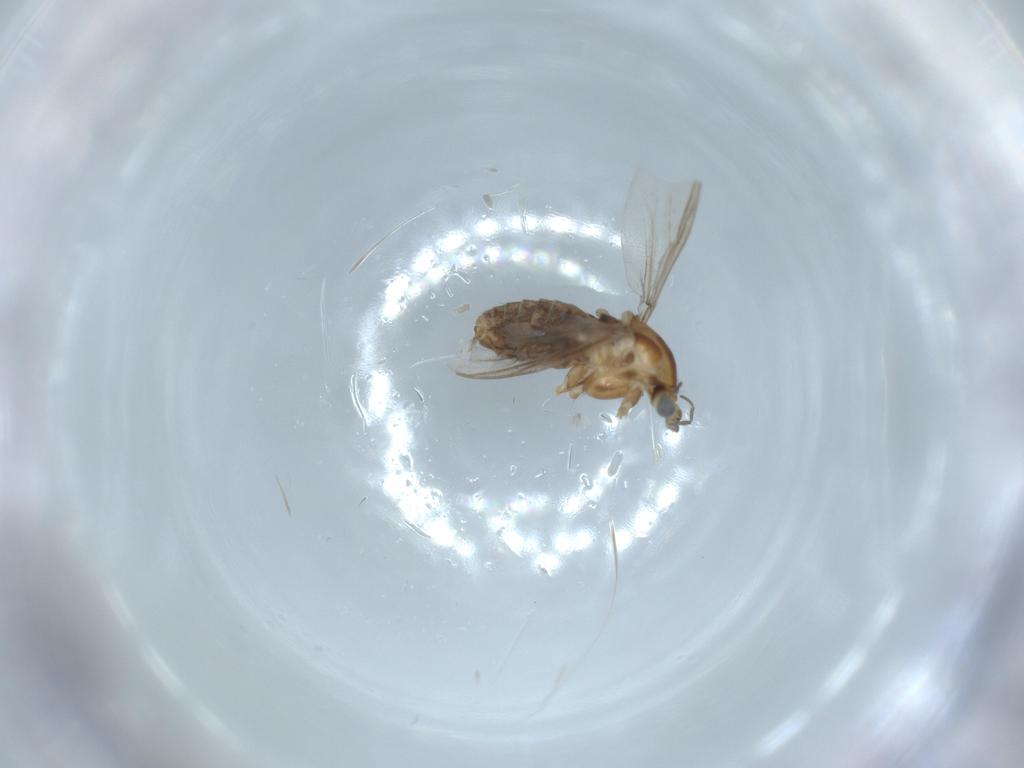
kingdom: Animalia
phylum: Arthropoda
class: Insecta
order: Diptera
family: Chironomidae
